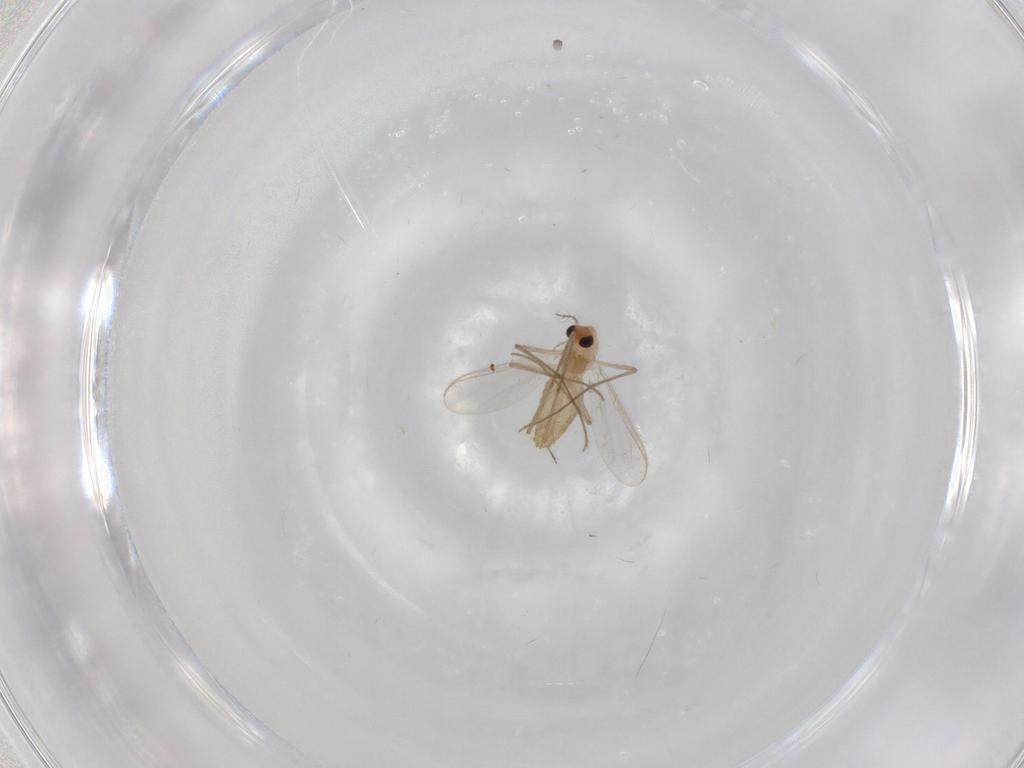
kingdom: Animalia
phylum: Arthropoda
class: Insecta
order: Diptera
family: Chironomidae
